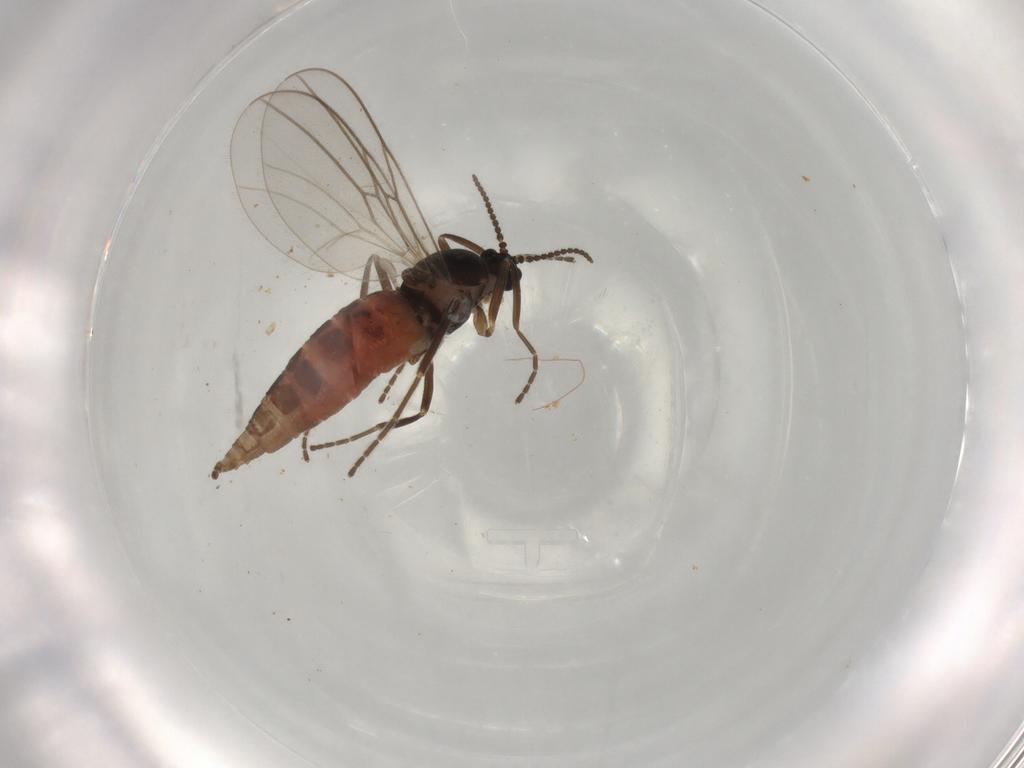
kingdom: Animalia
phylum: Arthropoda
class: Insecta
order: Diptera
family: Cecidomyiidae
